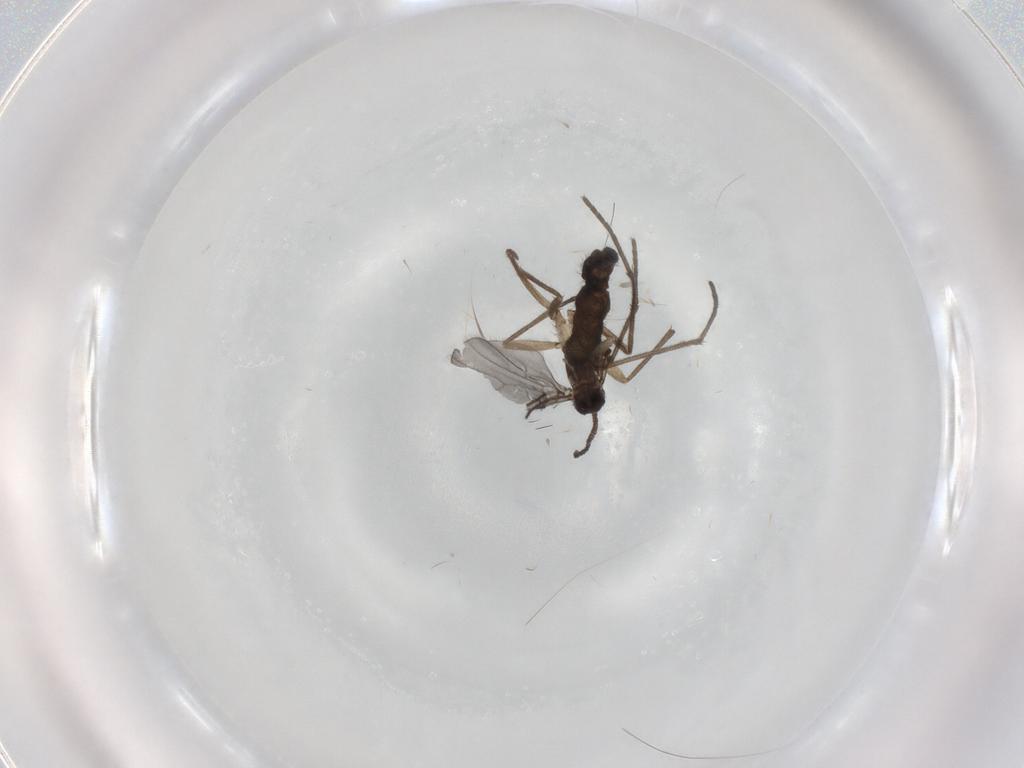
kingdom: Animalia
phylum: Arthropoda
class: Insecta
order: Diptera
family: Sciaridae
